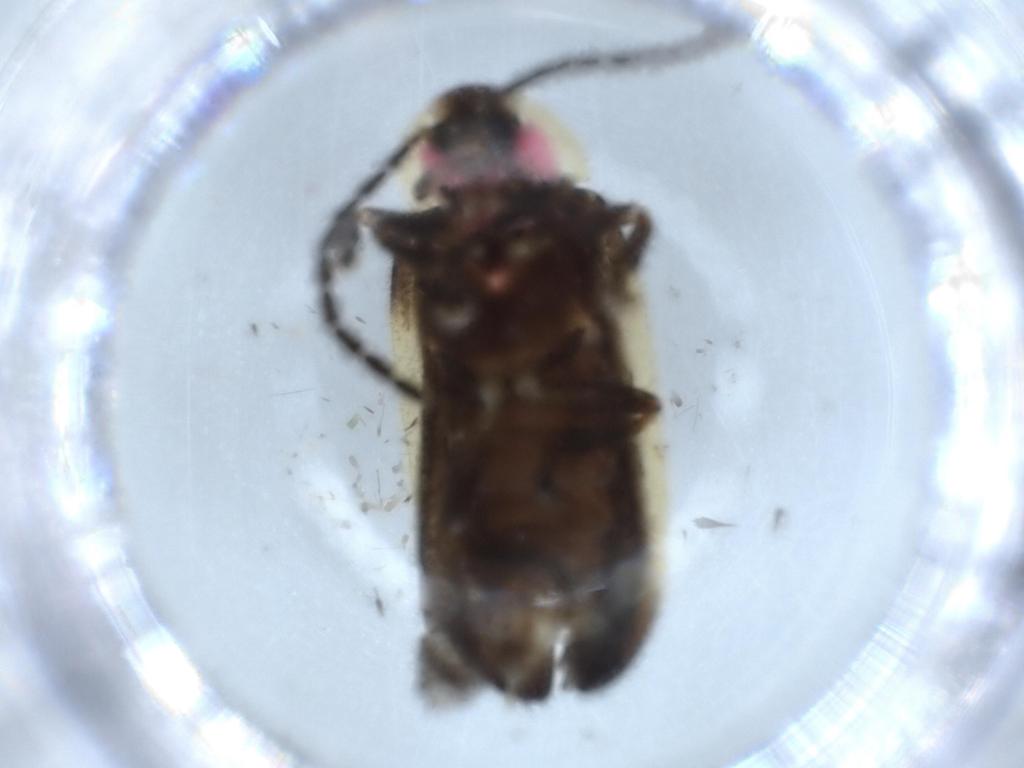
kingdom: Animalia
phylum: Arthropoda
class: Insecta
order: Coleoptera
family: Lampyridae
